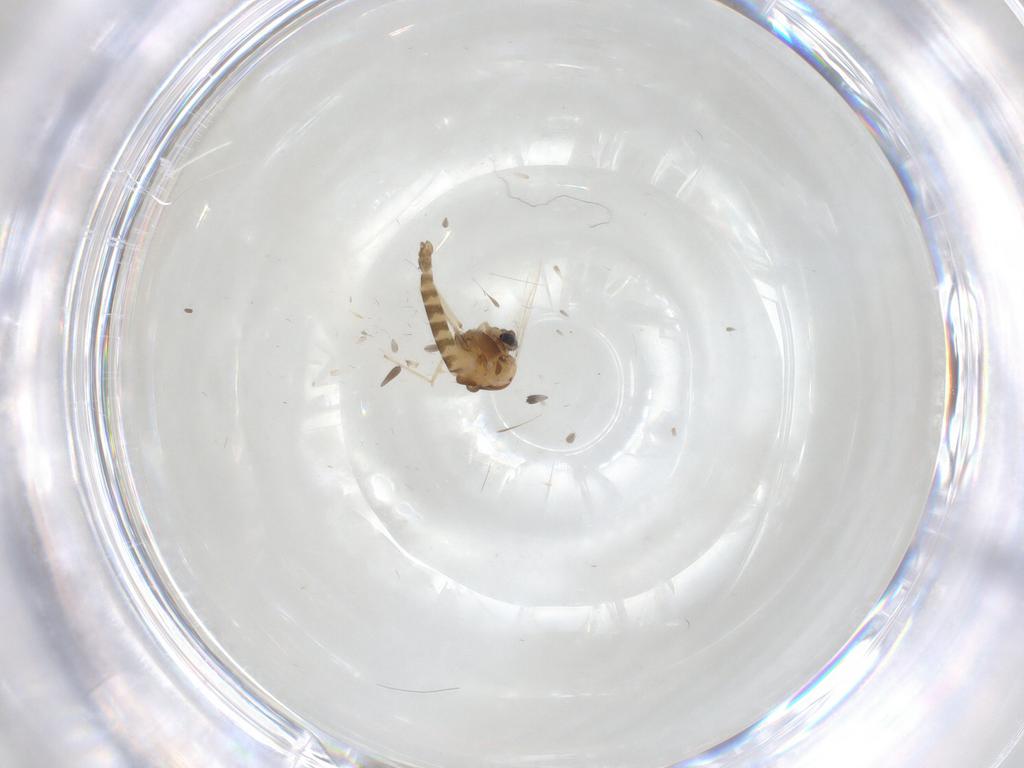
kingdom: Animalia
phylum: Arthropoda
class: Insecta
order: Diptera
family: Chironomidae
